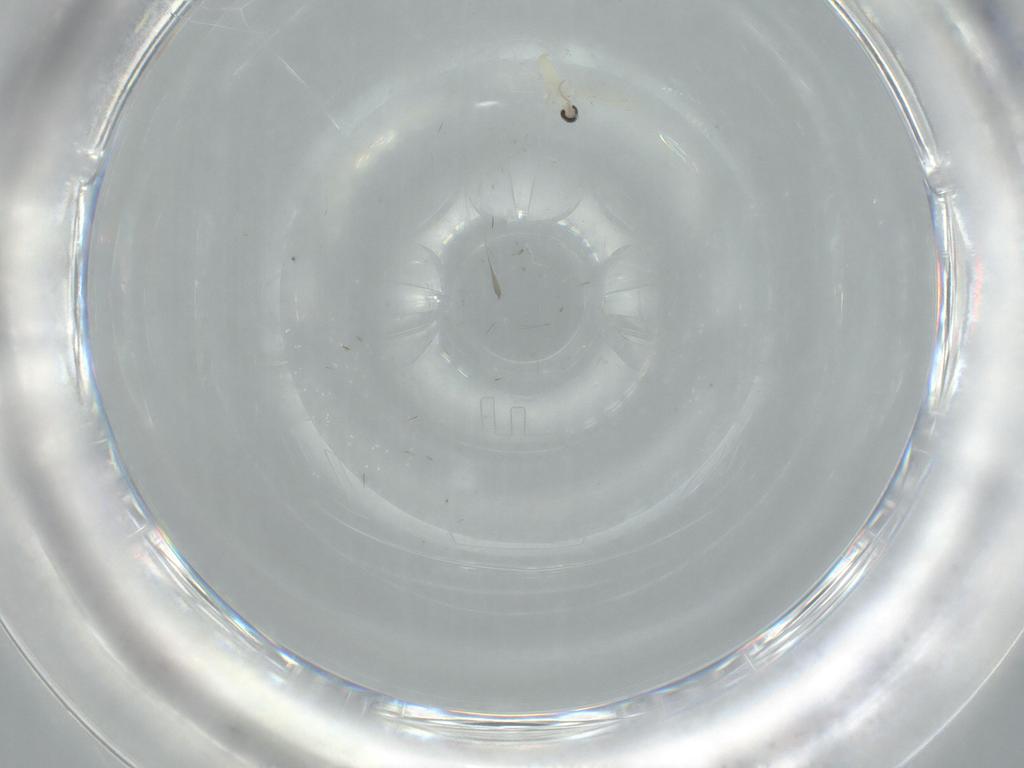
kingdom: Animalia
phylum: Arthropoda
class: Insecta
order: Diptera
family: Cecidomyiidae
